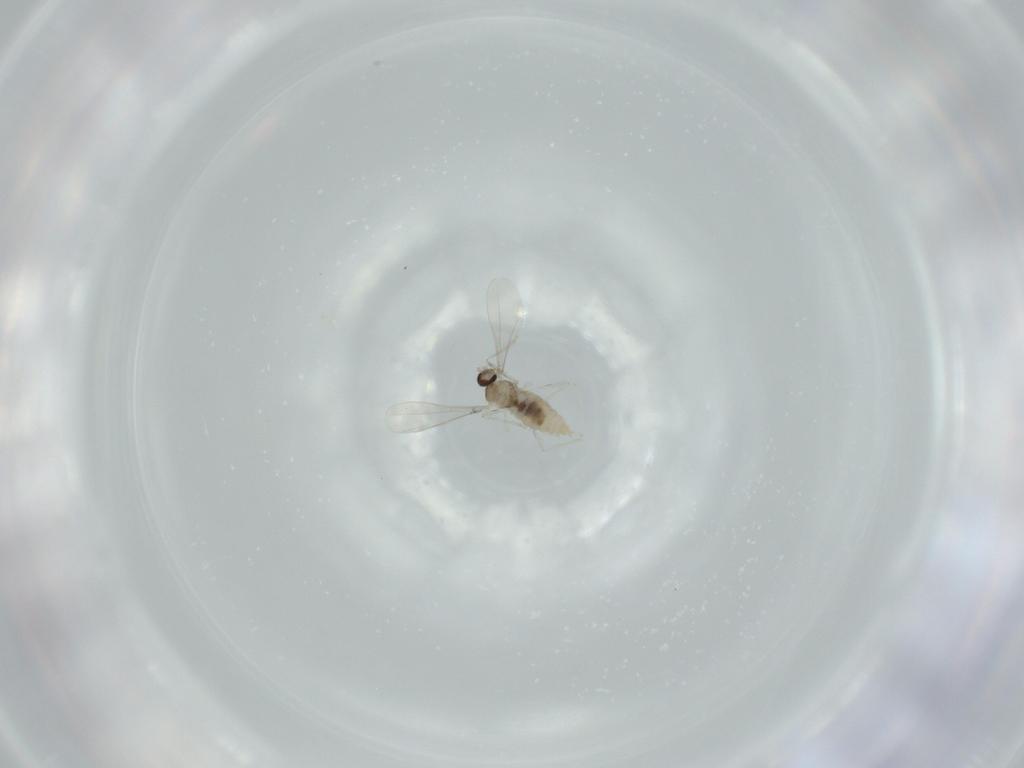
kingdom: Animalia
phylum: Arthropoda
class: Insecta
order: Diptera
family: Cecidomyiidae
